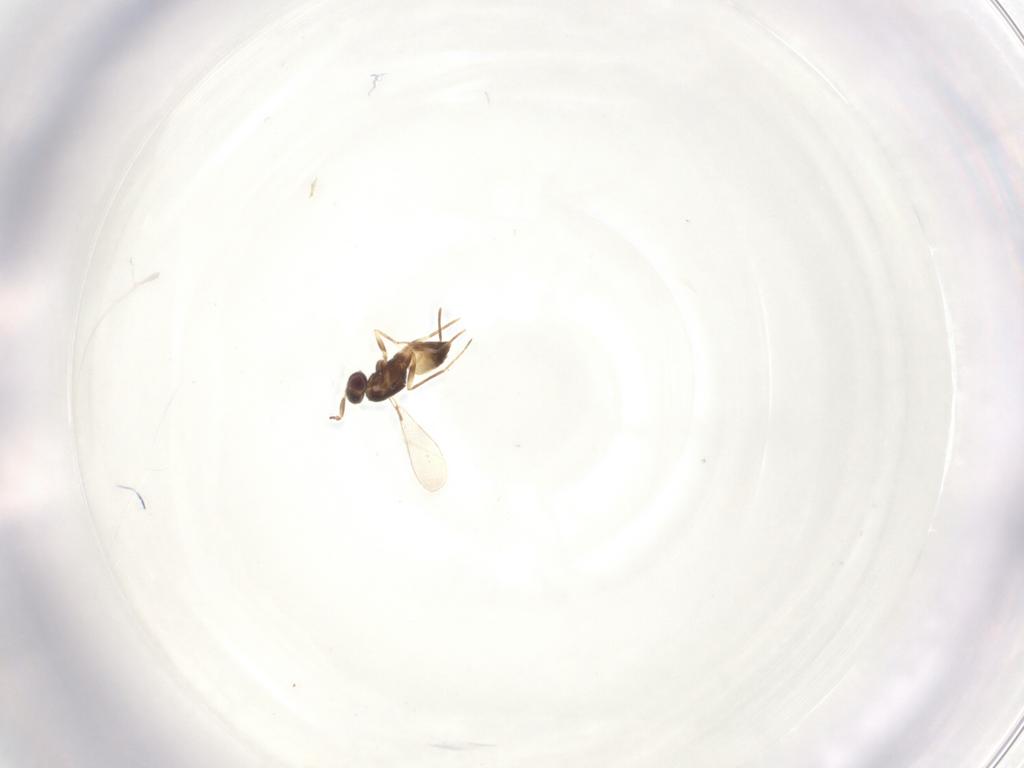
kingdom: Animalia
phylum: Arthropoda
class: Insecta
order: Hymenoptera
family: Mymaridae
